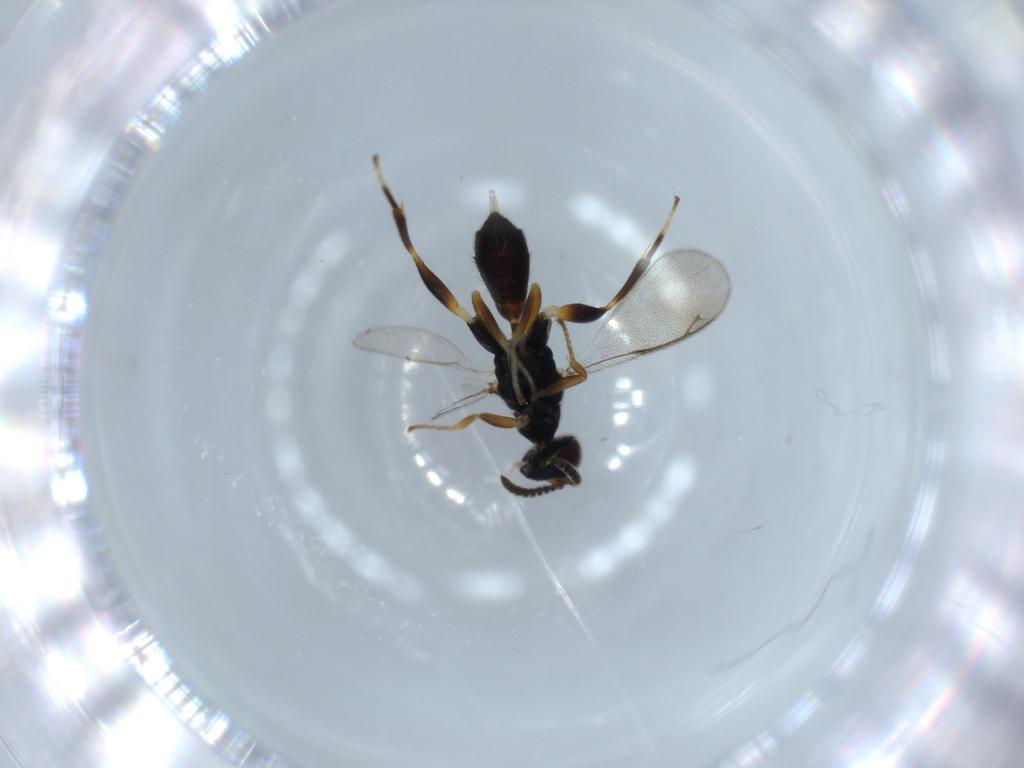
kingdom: Animalia
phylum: Arthropoda
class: Insecta
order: Hymenoptera
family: Cleonyminae
